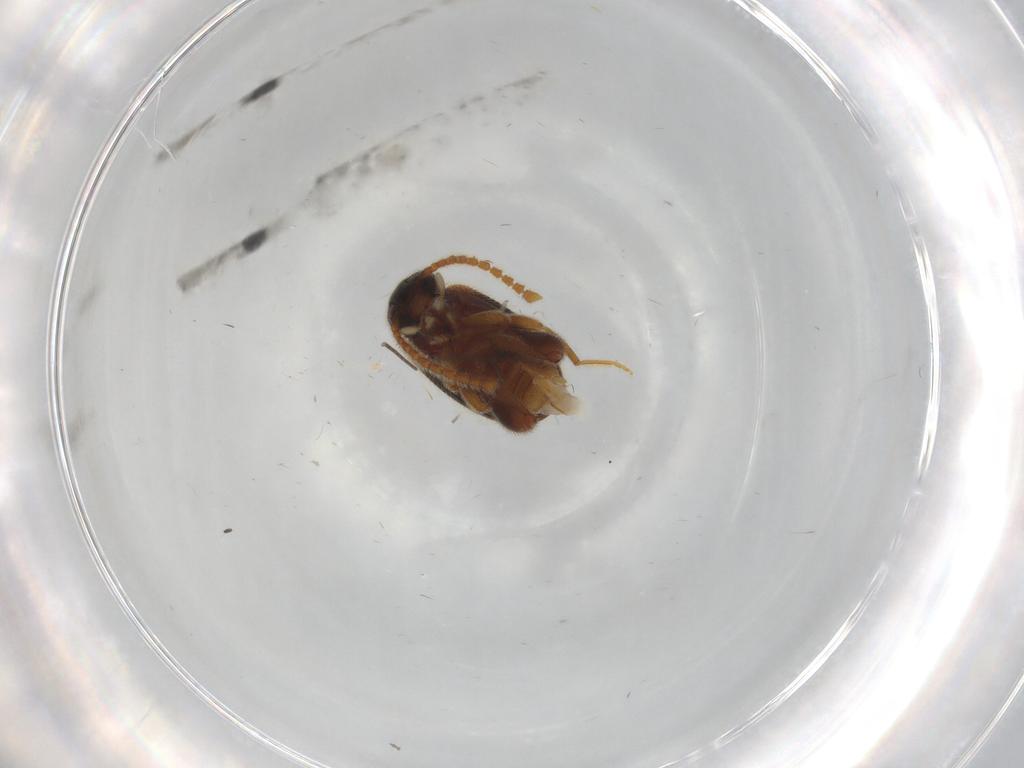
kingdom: Animalia
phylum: Arthropoda
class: Insecta
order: Coleoptera
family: Aderidae
